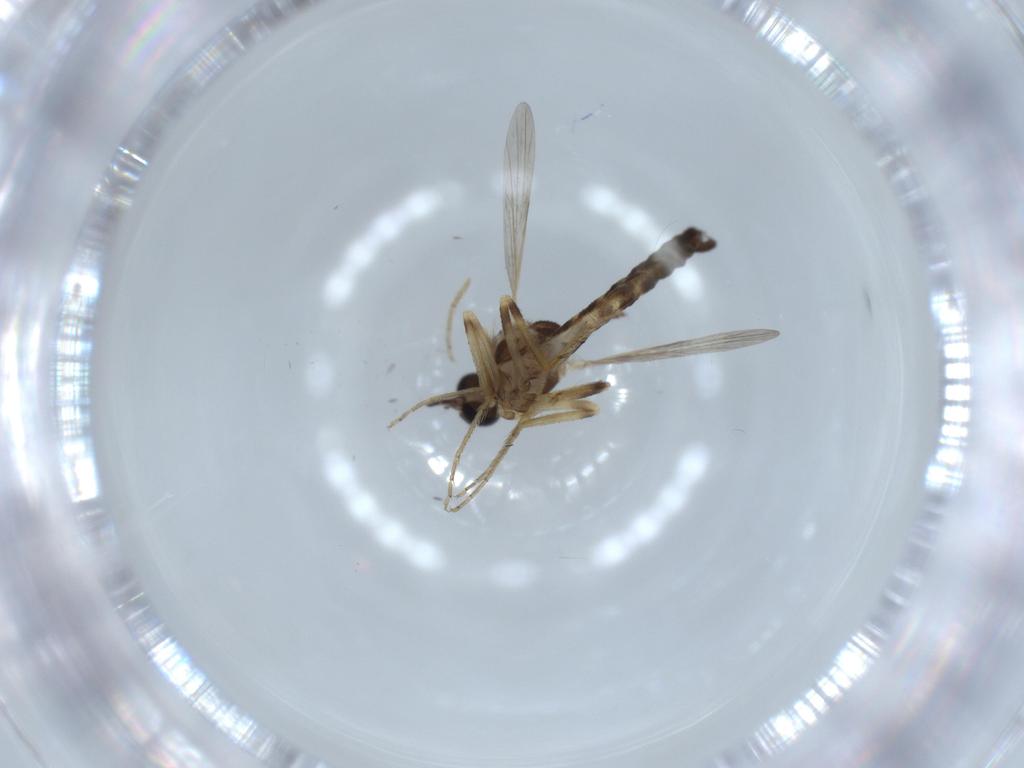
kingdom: Animalia
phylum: Arthropoda
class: Insecta
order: Diptera
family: Ceratopogonidae
